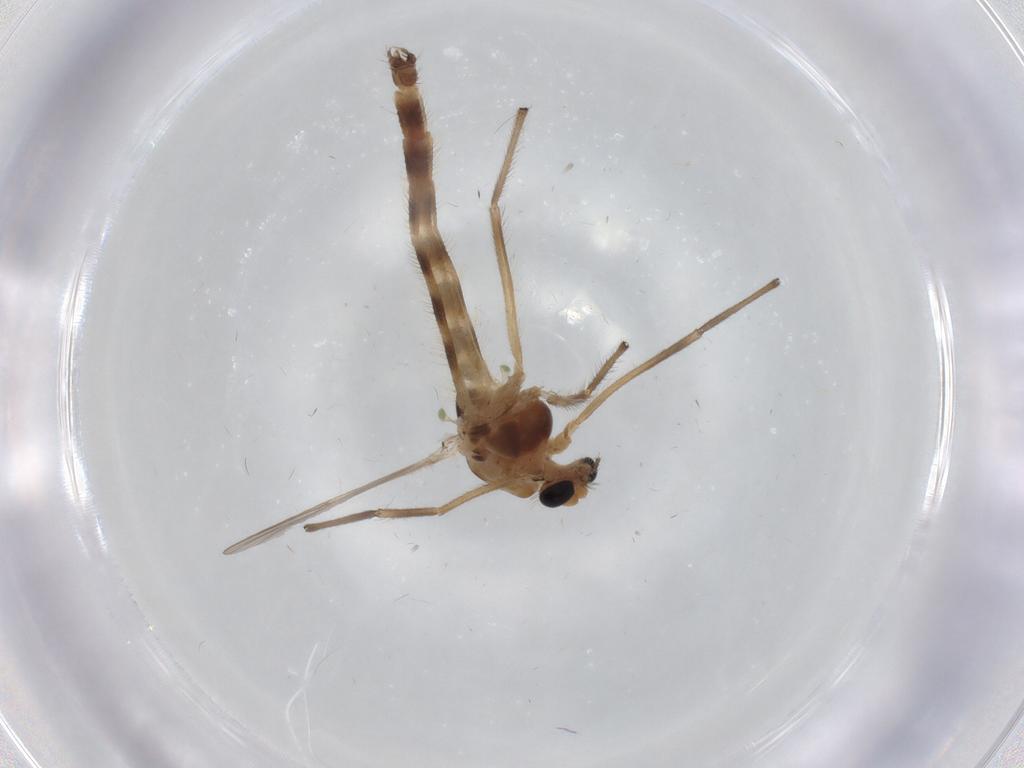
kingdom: Animalia
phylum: Arthropoda
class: Insecta
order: Diptera
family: Chironomidae
